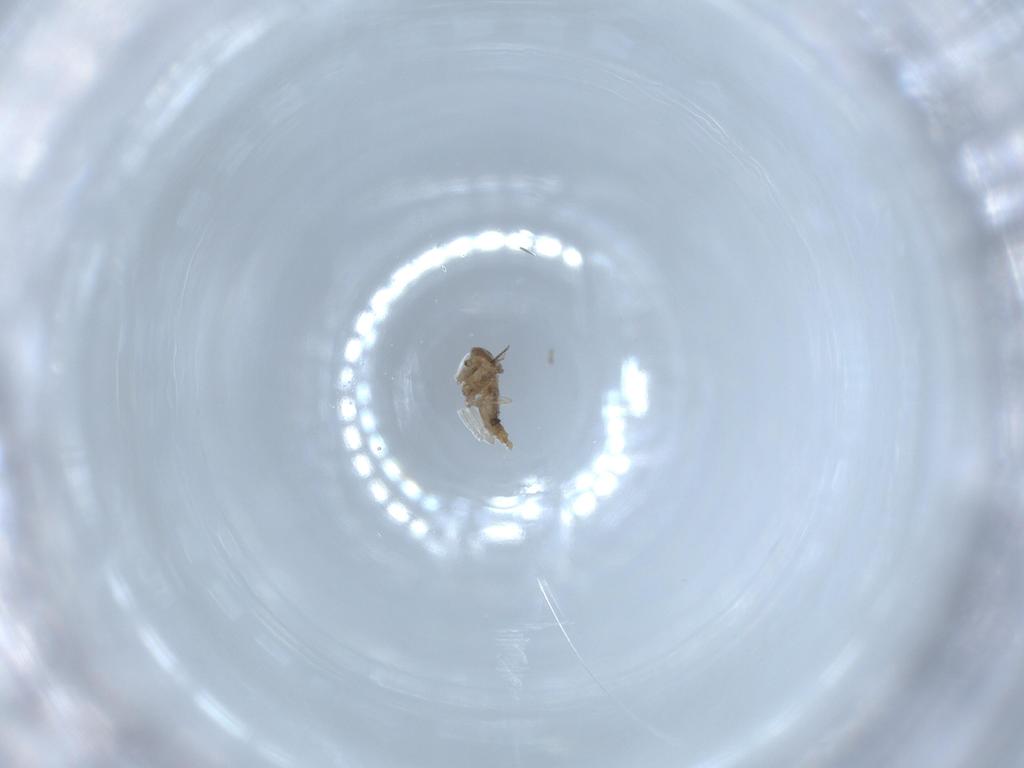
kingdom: Animalia
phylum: Arthropoda
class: Insecta
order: Diptera
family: Cecidomyiidae
